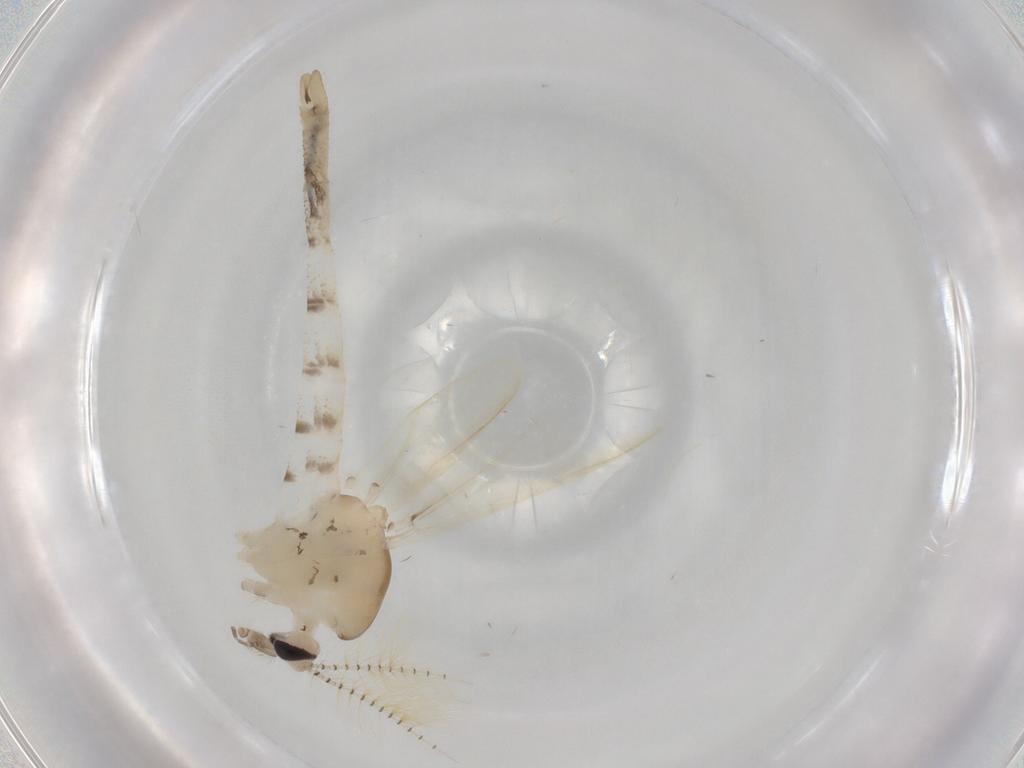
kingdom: Animalia
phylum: Arthropoda
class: Insecta
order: Diptera
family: Chaoboridae
